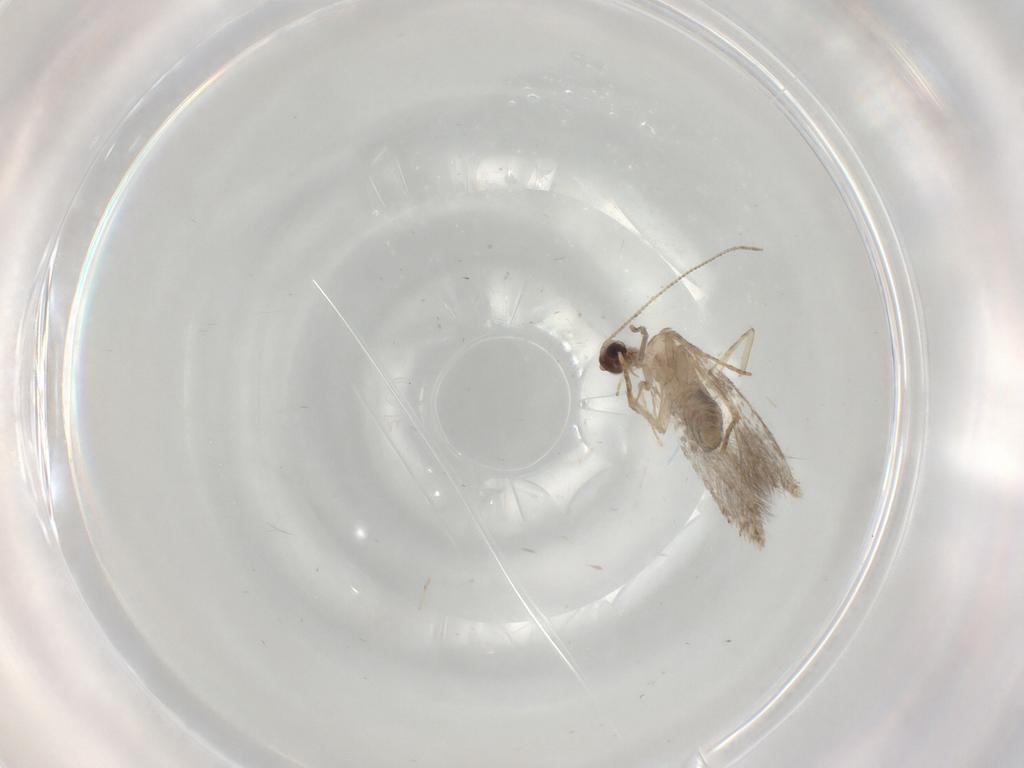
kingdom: Animalia
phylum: Arthropoda
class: Insecta
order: Lepidoptera
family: Tineidae
